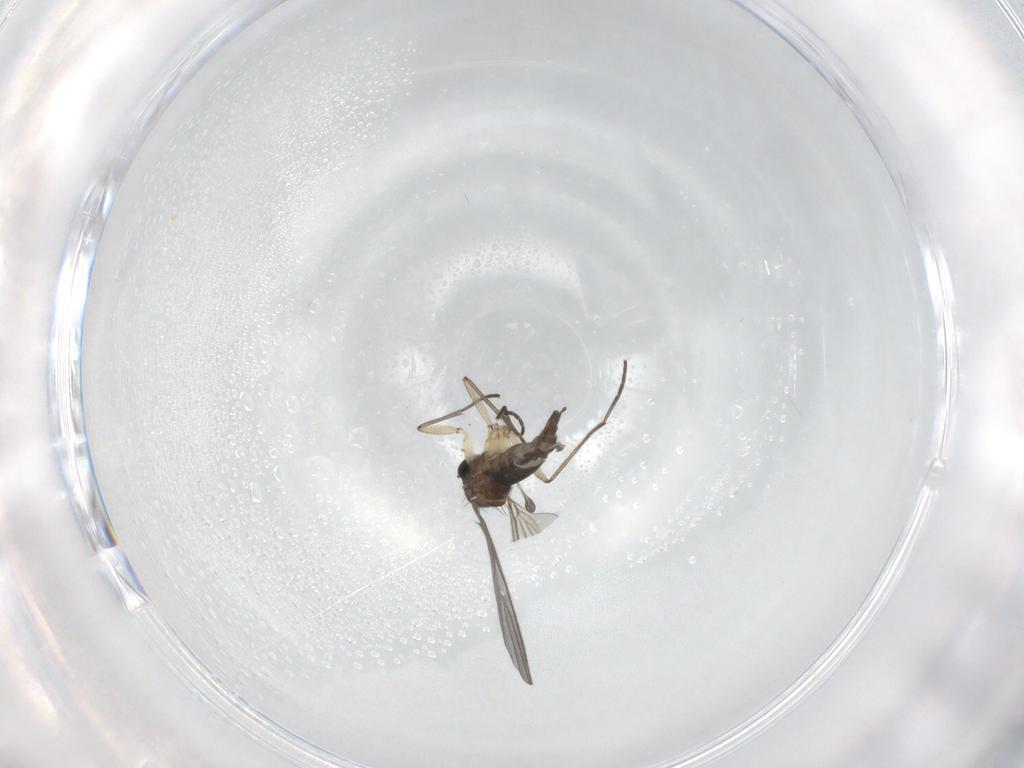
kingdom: Animalia
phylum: Arthropoda
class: Insecta
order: Diptera
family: Sciaridae
